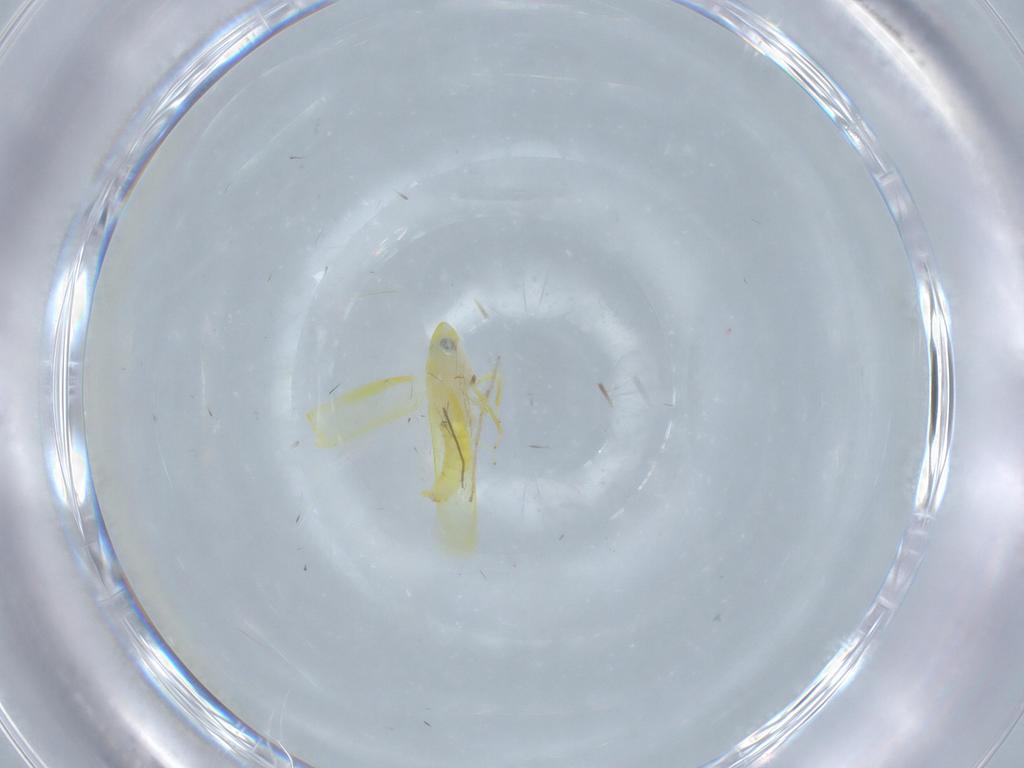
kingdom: Animalia
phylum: Arthropoda
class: Insecta
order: Hemiptera
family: Cicadellidae
